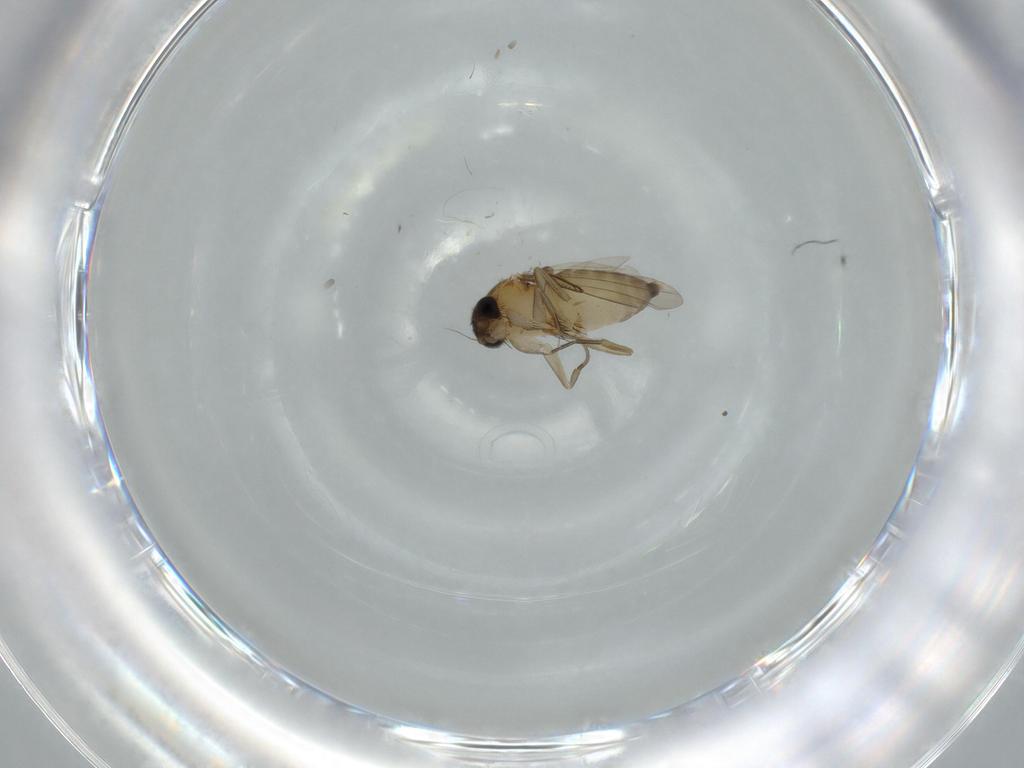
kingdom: Animalia
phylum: Arthropoda
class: Insecta
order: Diptera
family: Phoridae
